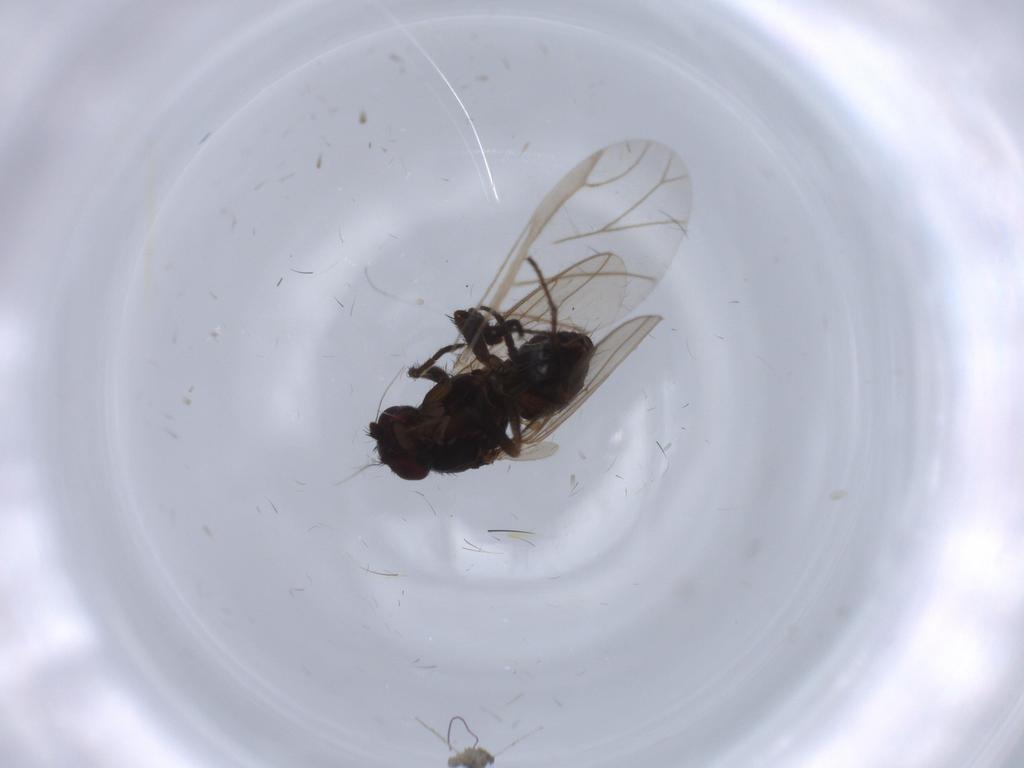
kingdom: Animalia
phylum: Arthropoda
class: Insecta
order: Diptera
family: Sphaeroceridae
